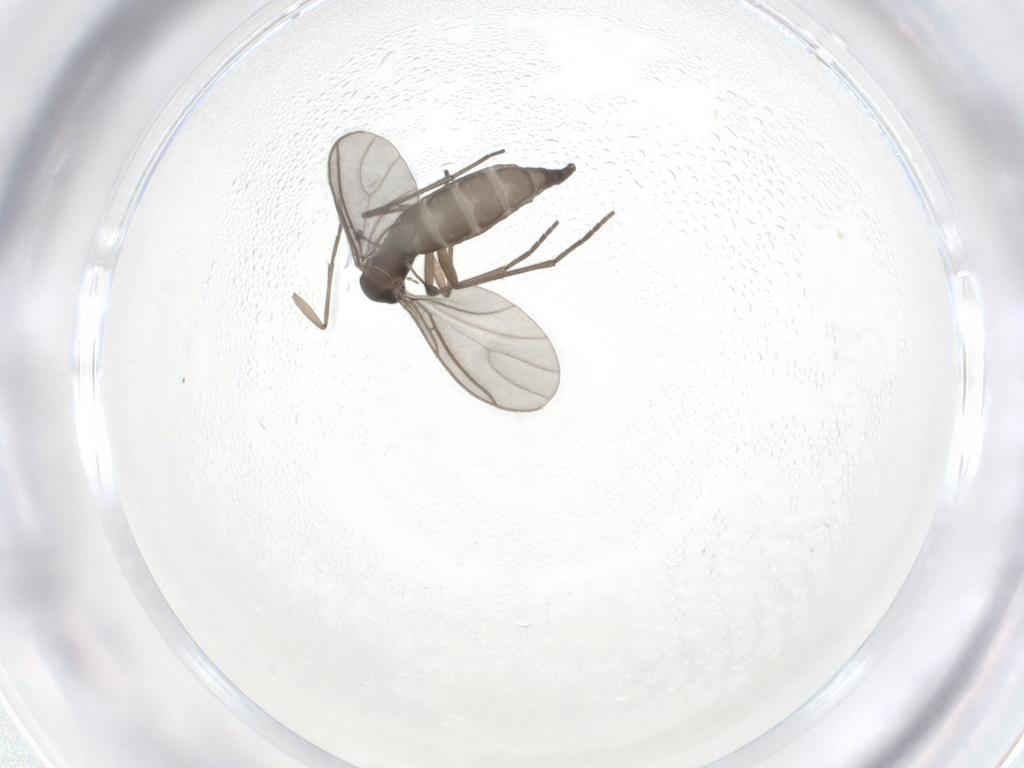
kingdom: Animalia
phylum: Arthropoda
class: Insecta
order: Diptera
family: Sciaridae
